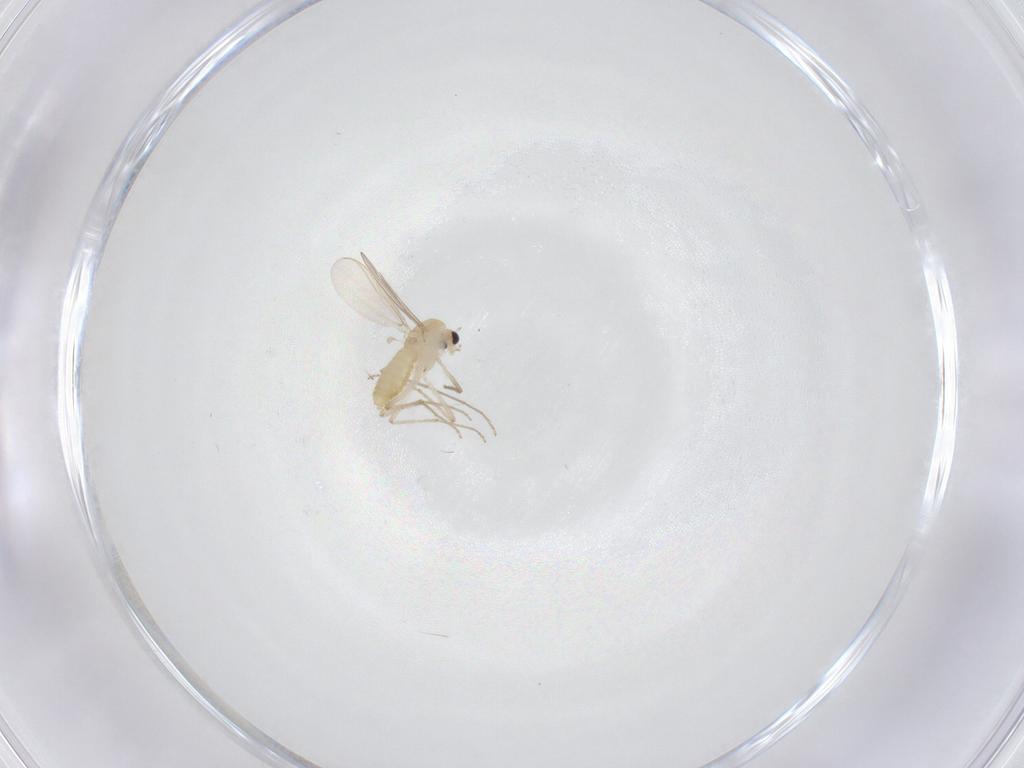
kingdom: Animalia
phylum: Arthropoda
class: Insecta
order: Diptera
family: Chironomidae
